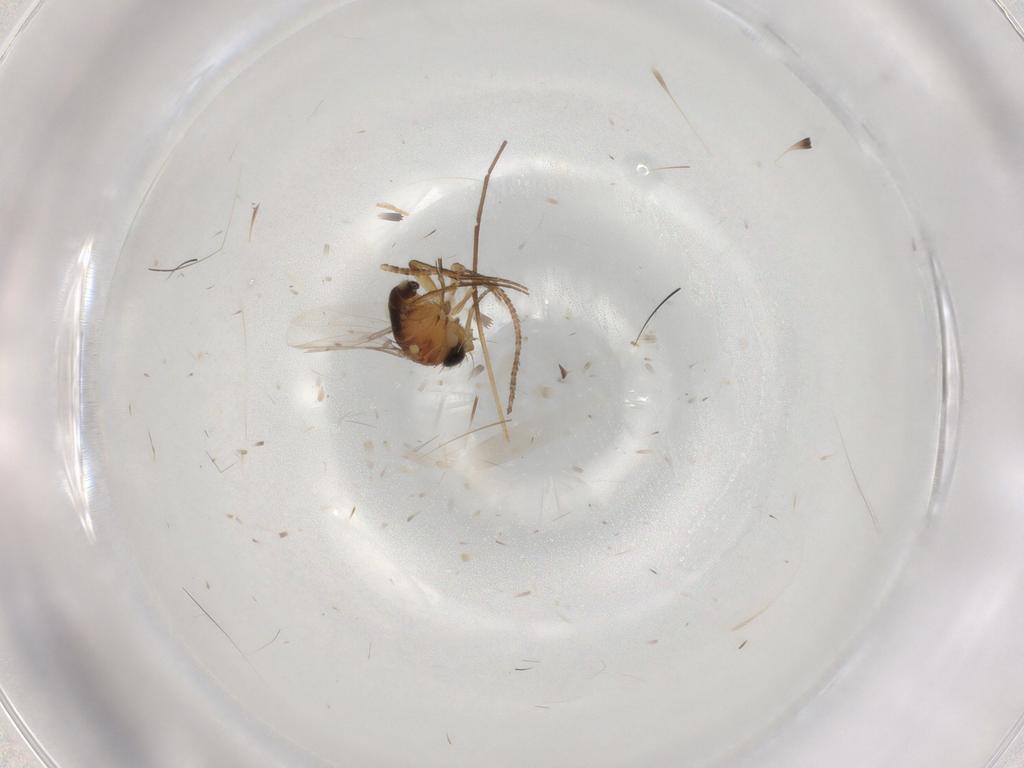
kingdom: Animalia
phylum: Arthropoda
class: Insecta
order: Diptera
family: Phoridae
